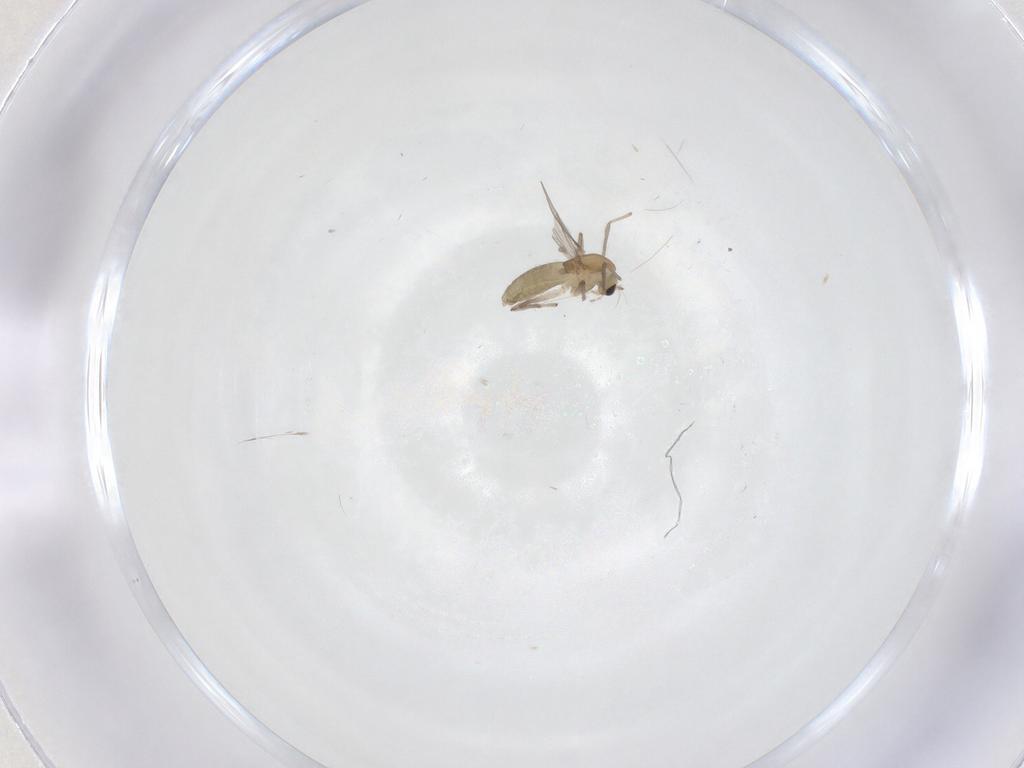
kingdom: Animalia
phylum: Arthropoda
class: Insecta
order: Diptera
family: Chironomidae
